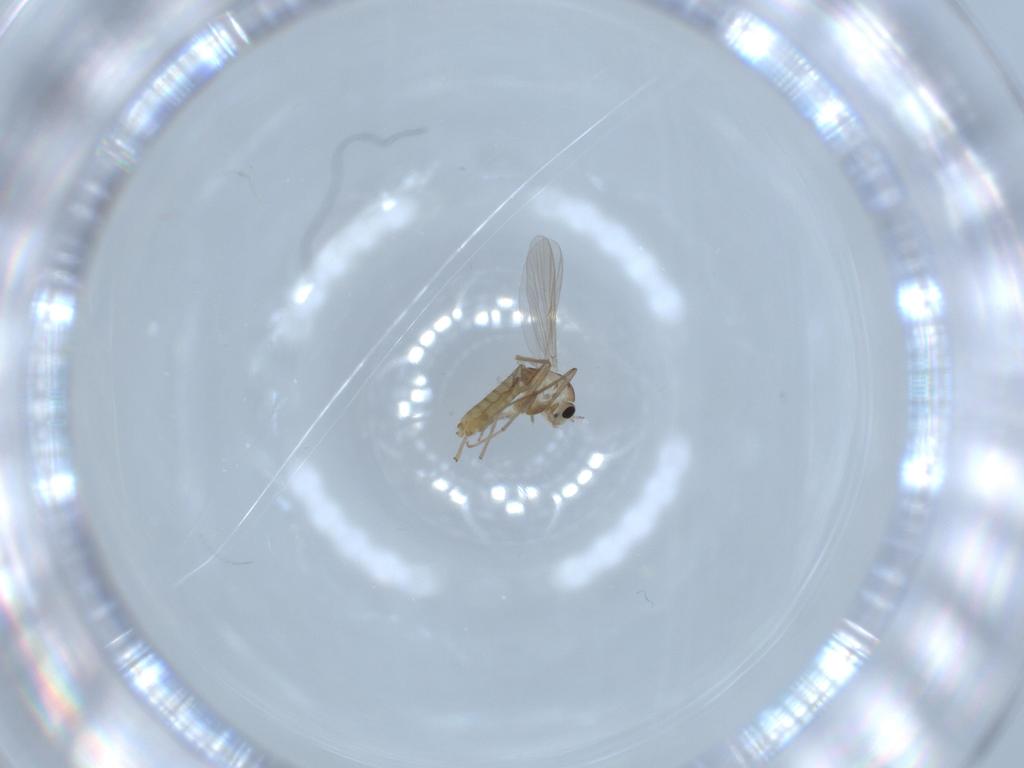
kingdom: Animalia
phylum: Arthropoda
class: Insecta
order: Diptera
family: Chironomidae
